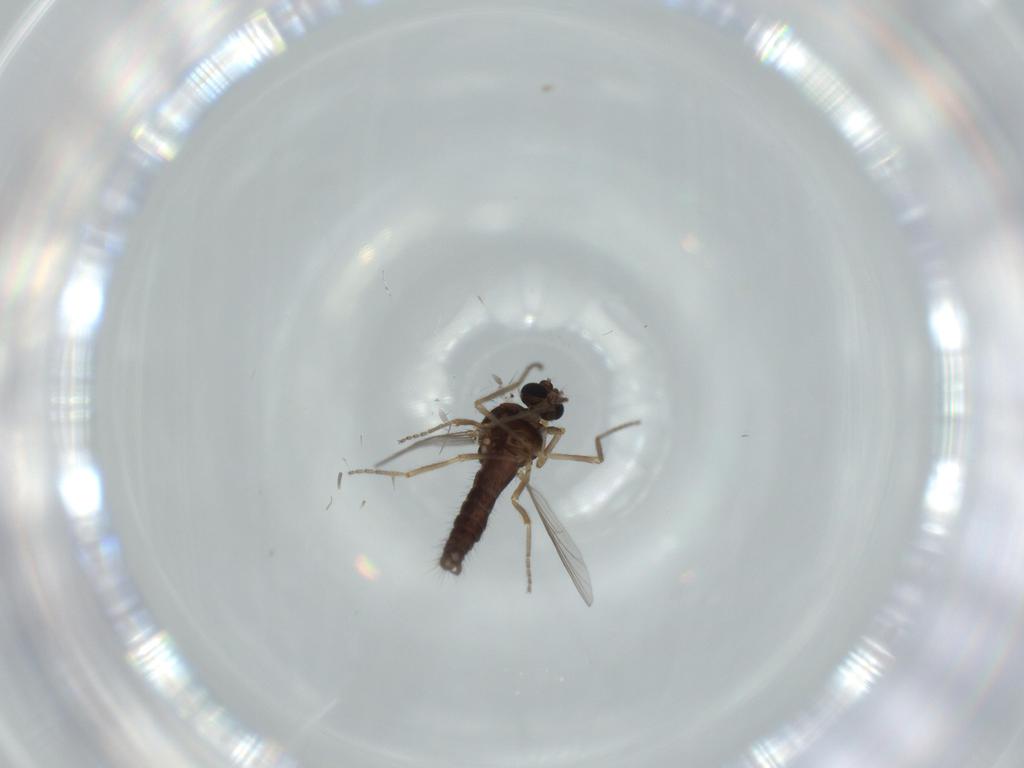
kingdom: Animalia
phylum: Arthropoda
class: Insecta
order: Diptera
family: Ceratopogonidae
